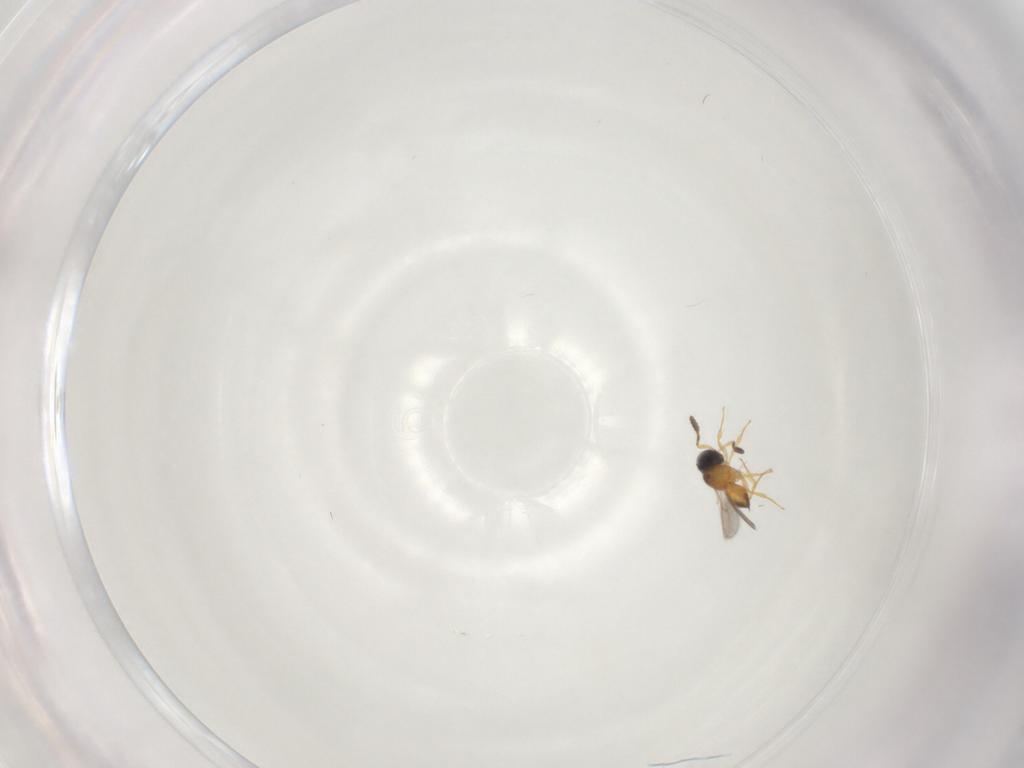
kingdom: Animalia
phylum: Arthropoda
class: Insecta
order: Hymenoptera
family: Scelionidae
